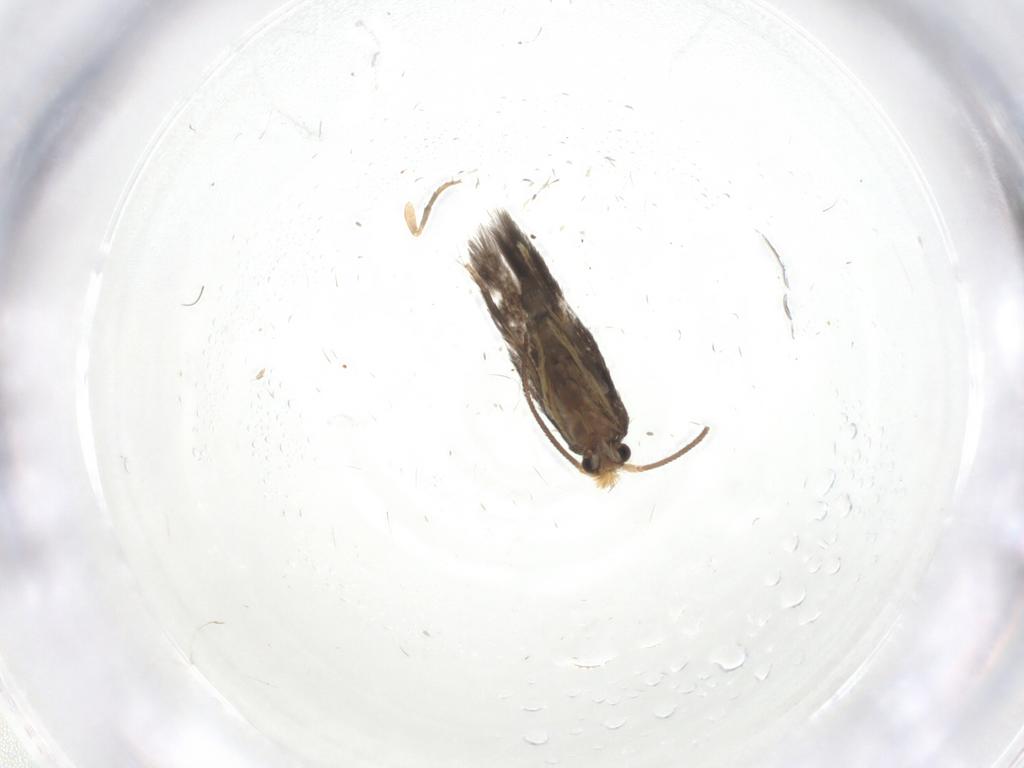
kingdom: Animalia
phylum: Arthropoda
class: Insecta
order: Lepidoptera
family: Nepticulidae
